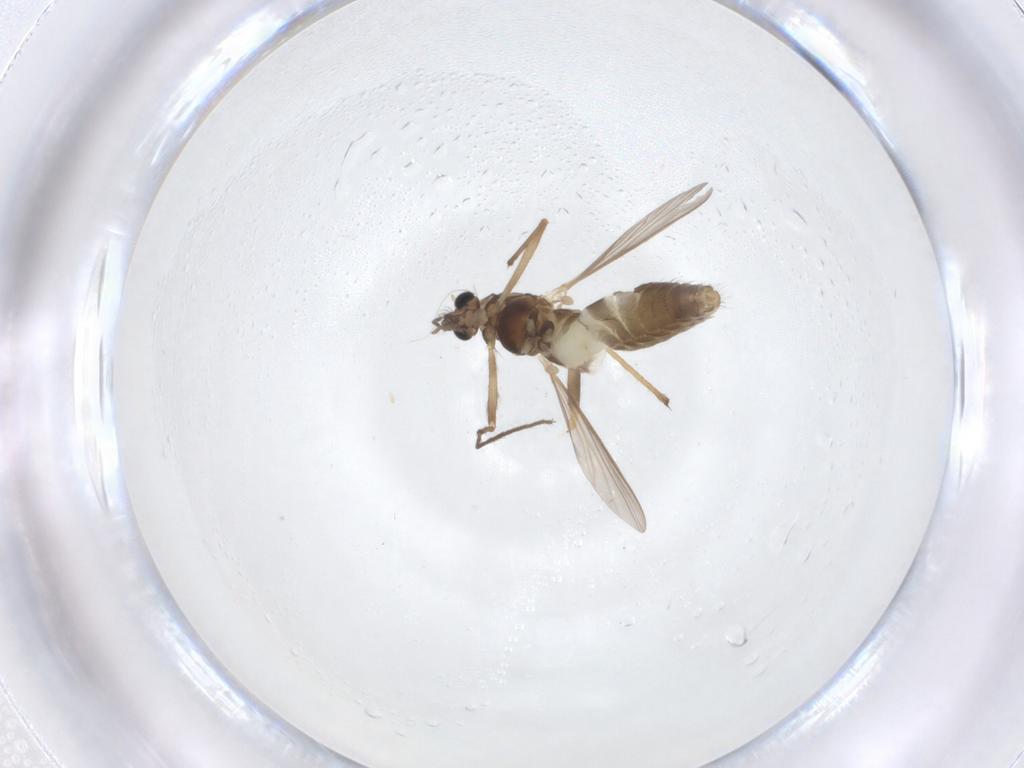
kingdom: Animalia
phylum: Arthropoda
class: Insecta
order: Diptera
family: Chironomidae
